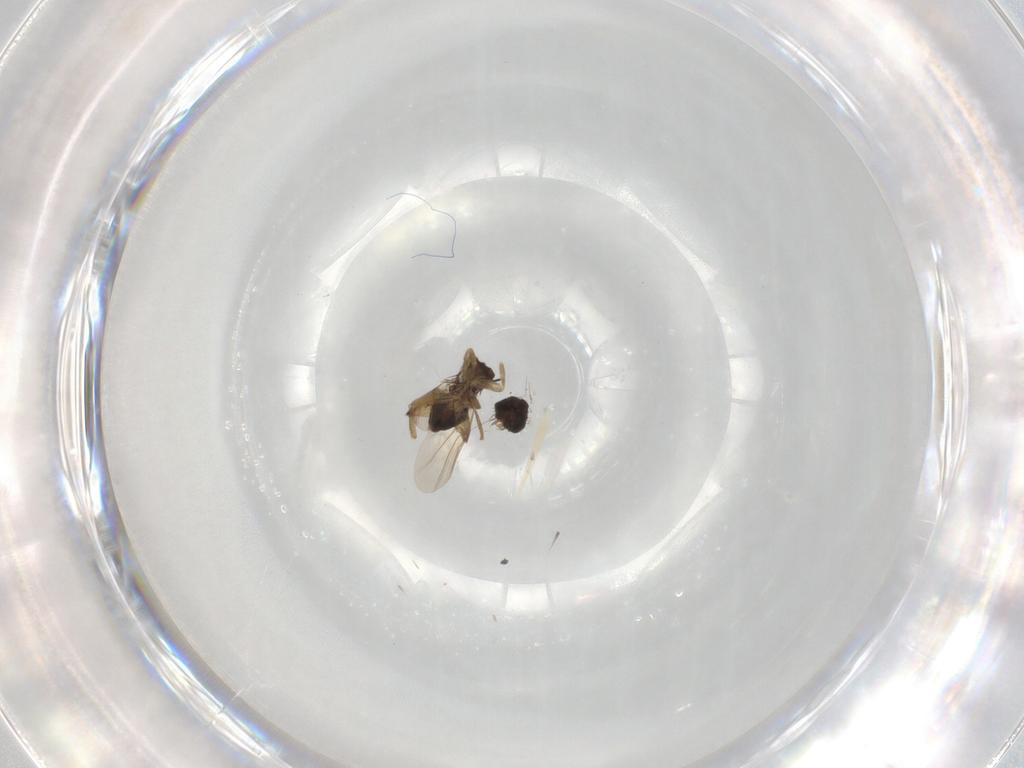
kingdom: Animalia
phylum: Arthropoda
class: Insecta
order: Diptera
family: Phoridae
